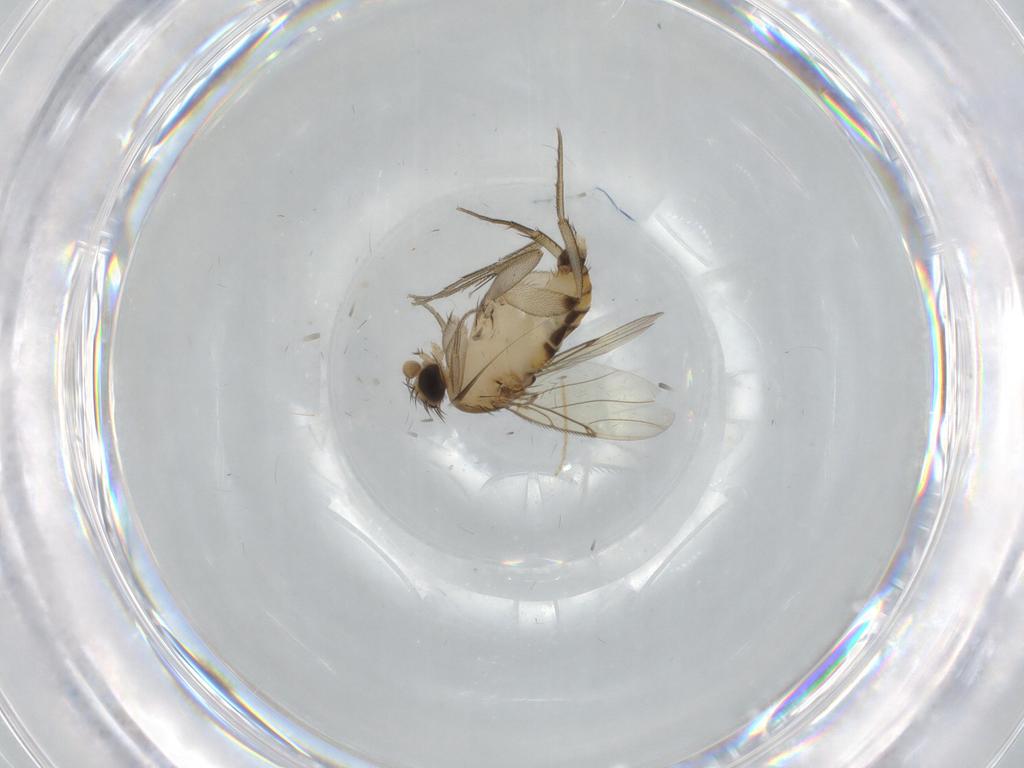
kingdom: Animalia
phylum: Arthropoda
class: Insecta
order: Diptera
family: Phoridae
